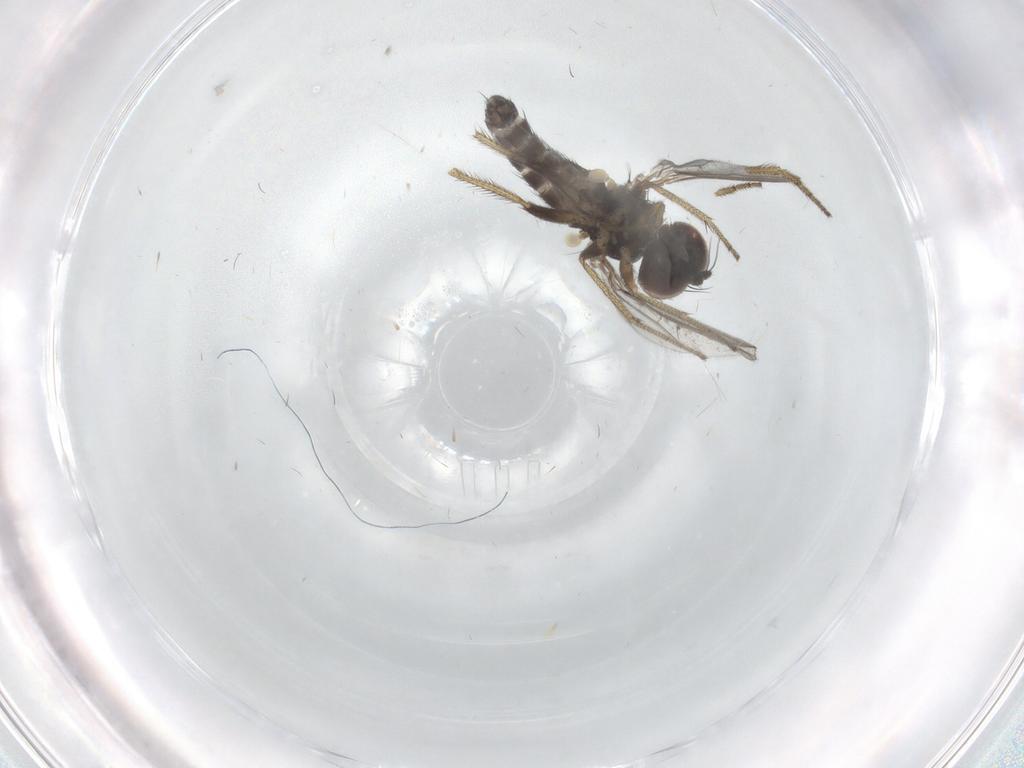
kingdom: Animalia
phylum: Arthropoda
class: Insecta
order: Diptera
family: Chironomidae
